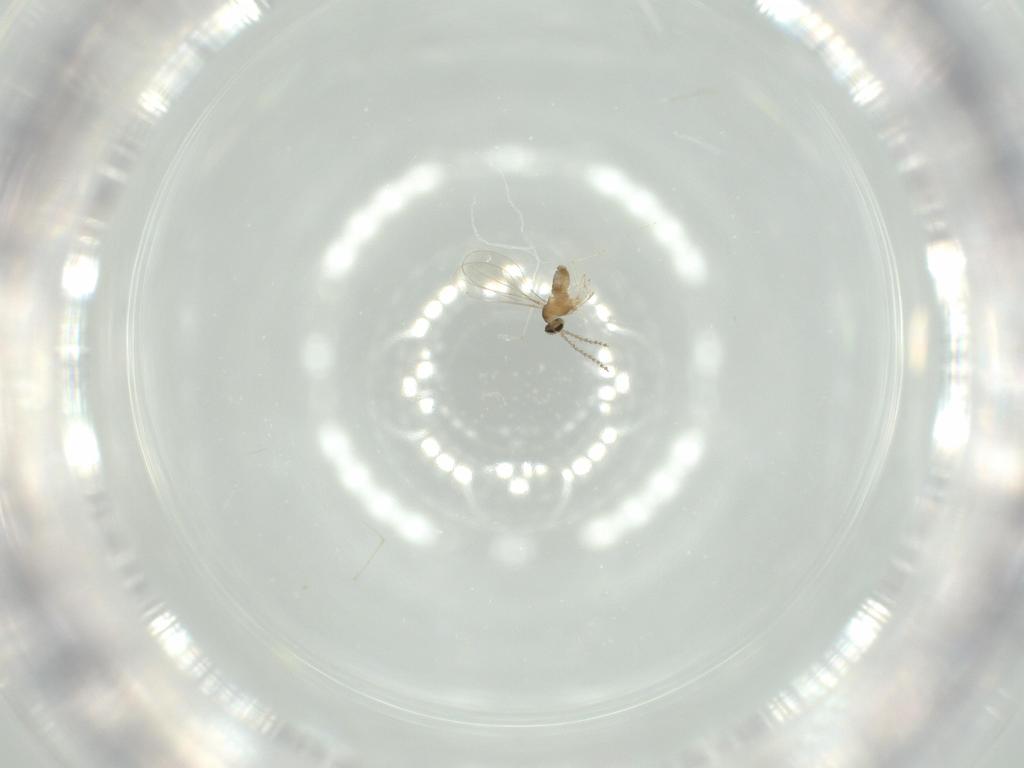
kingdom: Animalia
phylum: Arthropoda
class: Insecta
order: Diptera
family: Cecidomyiidae
